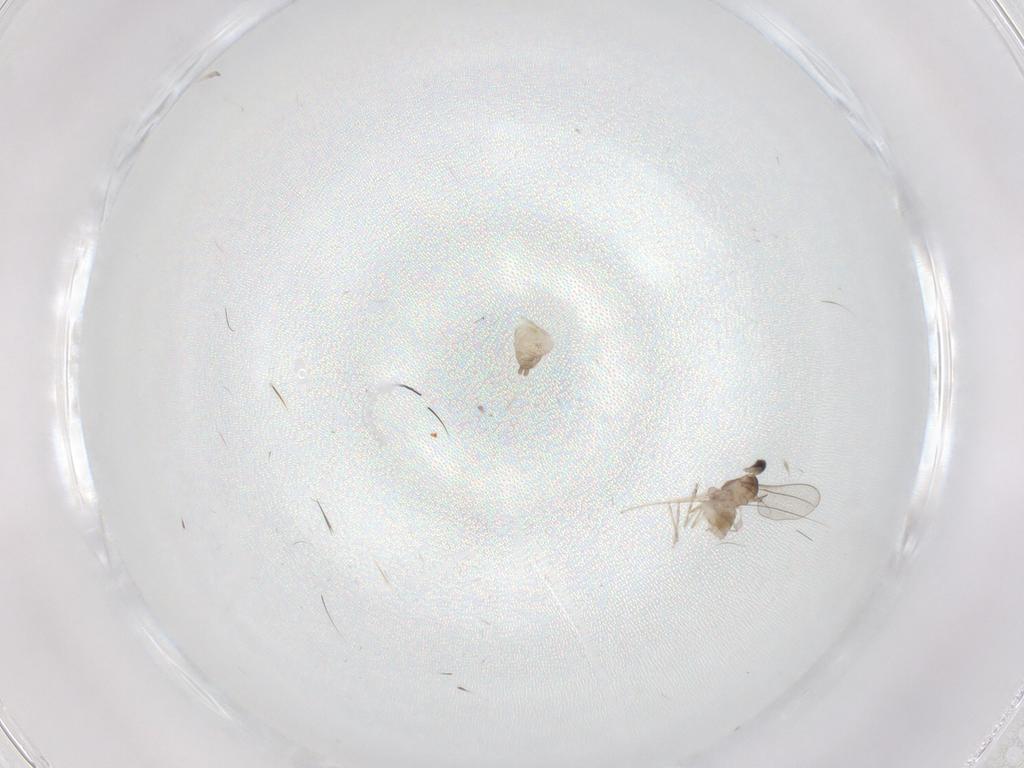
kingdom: Animalia
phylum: Arthropoda
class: Insecta
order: Diptera
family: Cecidomyiidae
